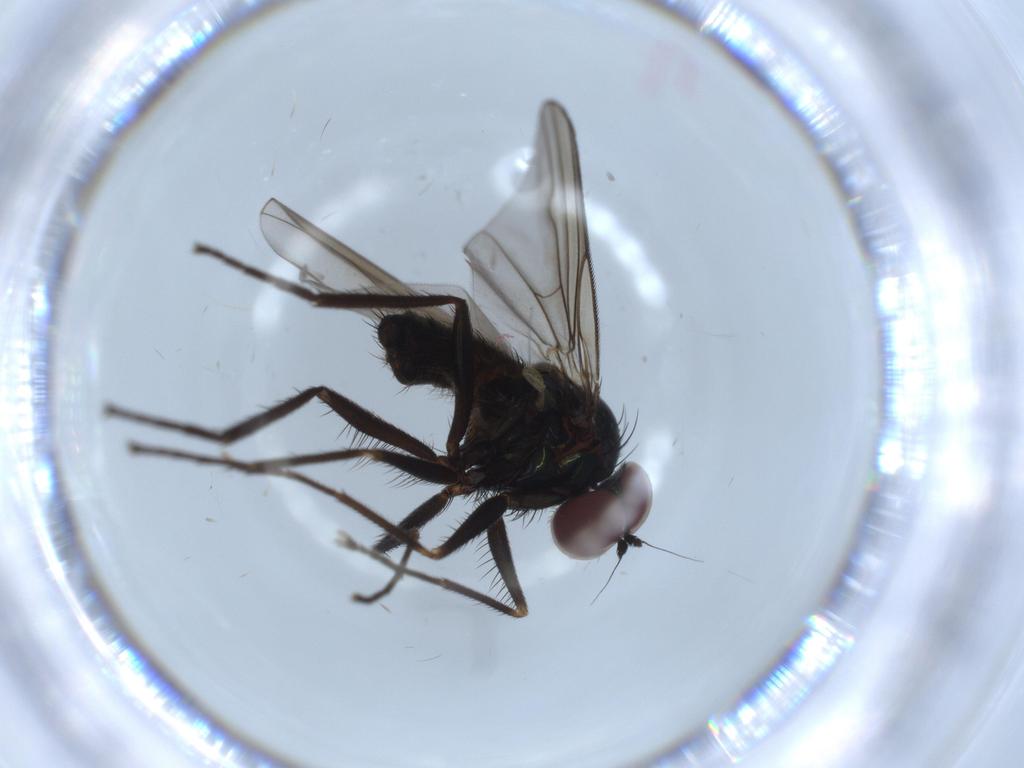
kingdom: Animalia
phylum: Arthropoda
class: Insecta
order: Diptera
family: Dolichopodidae
